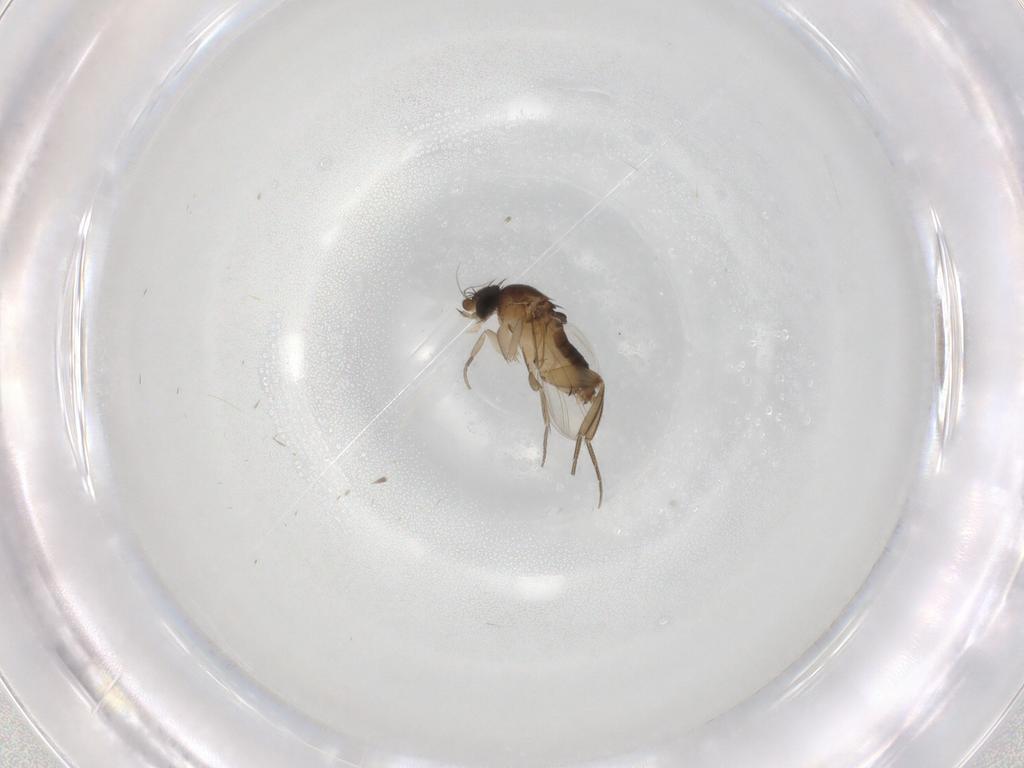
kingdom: Animalia
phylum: Arthropoda
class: Insecta
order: Diptera
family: Phoridae
